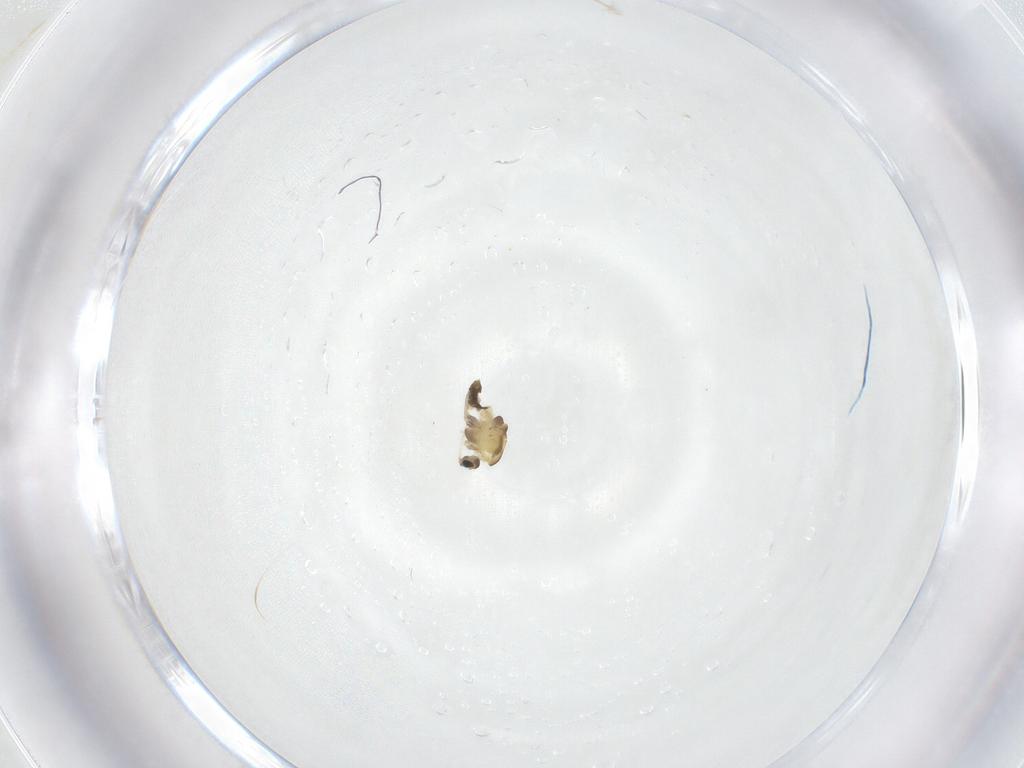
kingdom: Animalia
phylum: Arthropoda
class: Insecta
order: Diptera
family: Chironomidae
